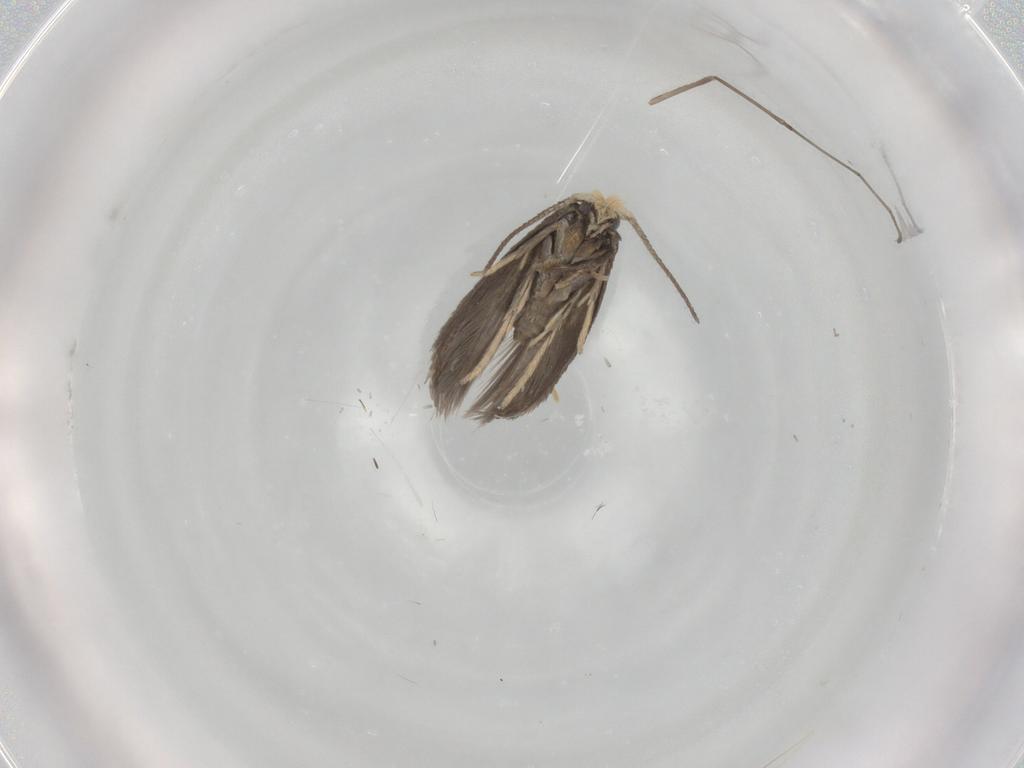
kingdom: Animalia
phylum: Arthropoda
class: Insecta
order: Lepidoptera
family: Nepticulidae
